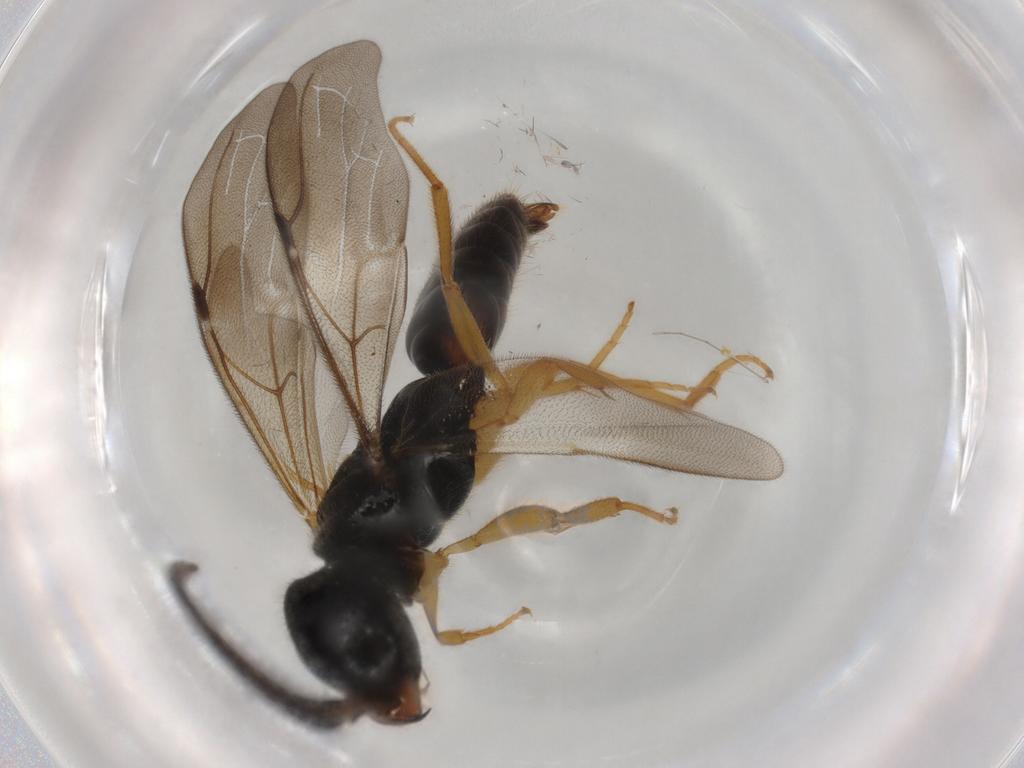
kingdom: Animalia
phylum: Arthropoda
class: Insecta
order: Hymenoptera
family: Bethylidae
